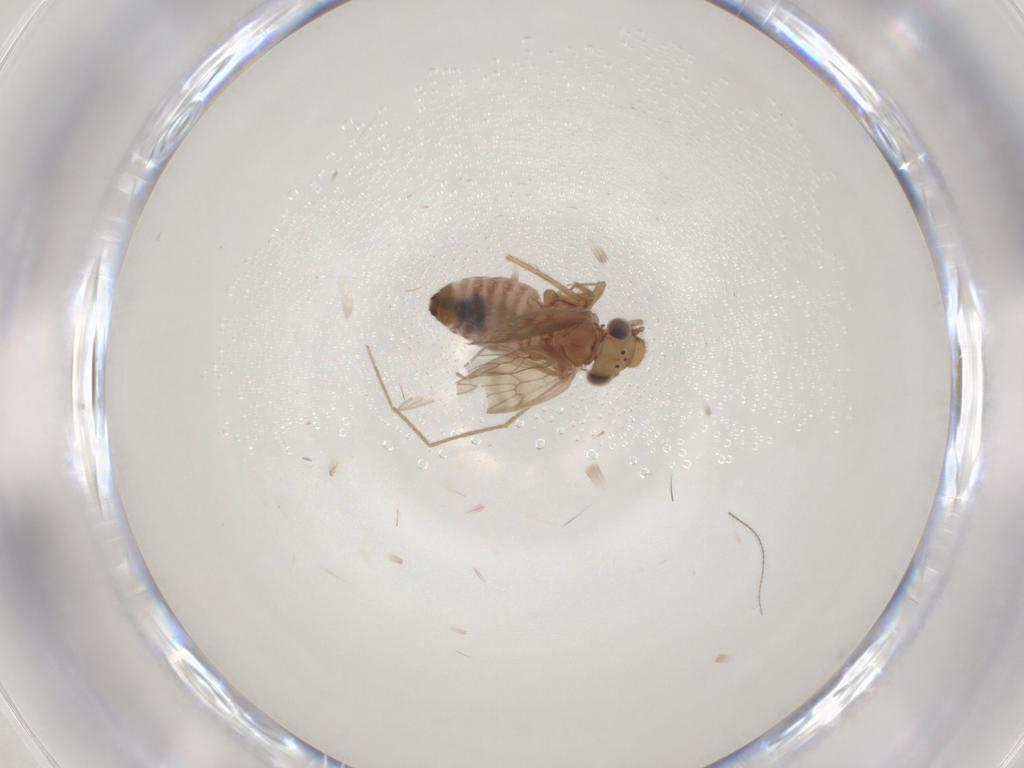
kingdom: Animalia
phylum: Arthropoda
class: Insecta
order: Psocodea
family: Lepidopsocidae
